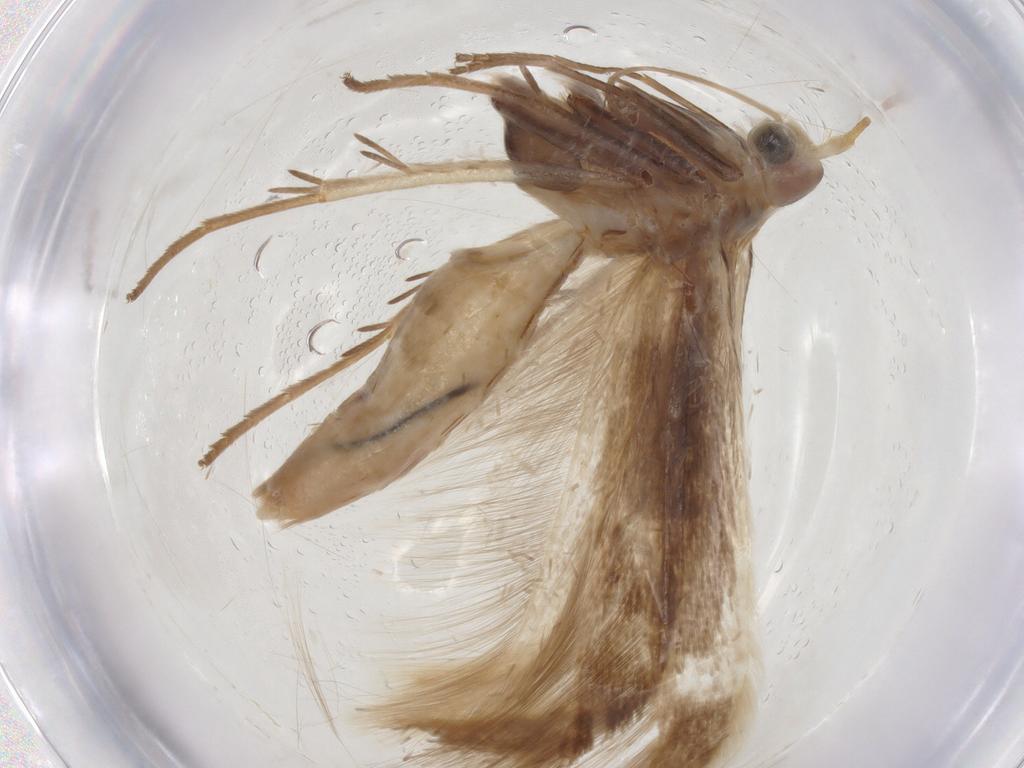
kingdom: Animalia
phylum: Arthropoda
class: Insecta
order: Lepidoptera
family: Coleophoridae
